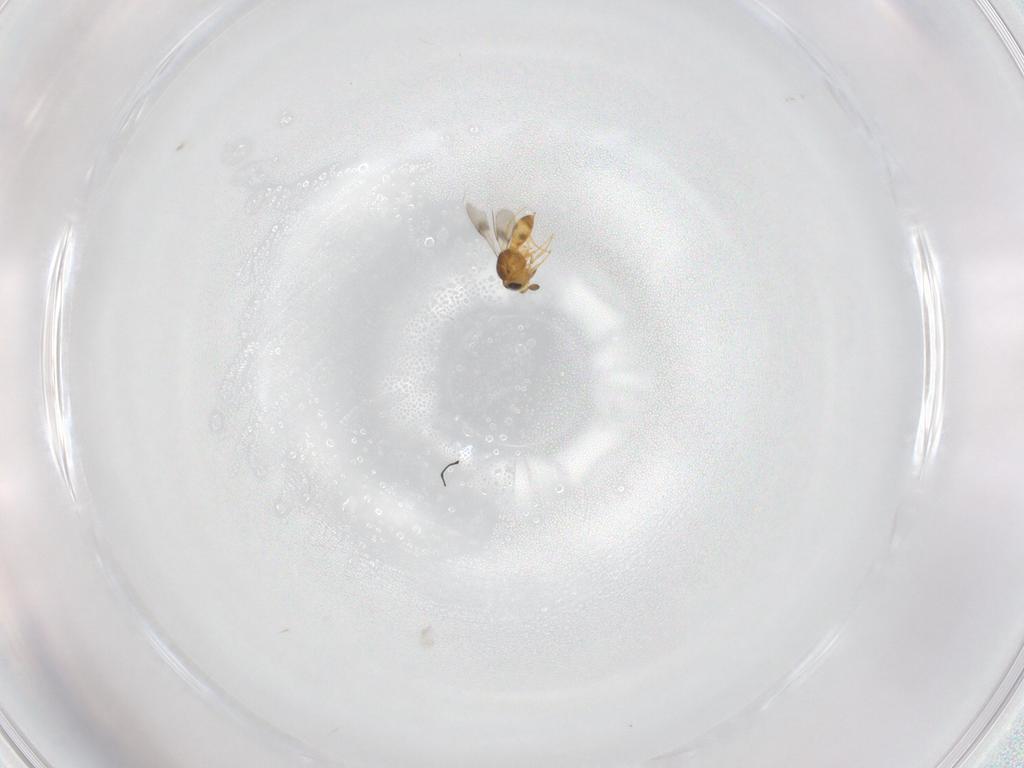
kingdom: Animalia
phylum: Arthropoda
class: Insecta
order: Hymenoptera
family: Scelionidae
